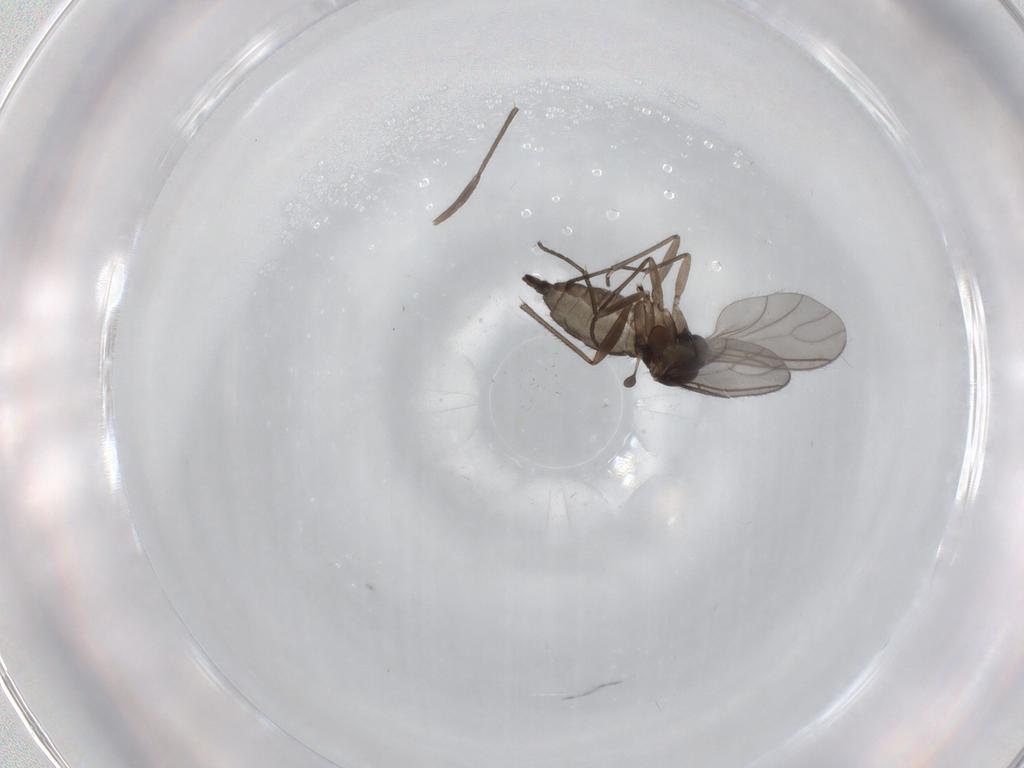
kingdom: Animalia
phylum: Arthropoda
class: Insecta
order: Diptera
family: Sciaridae
